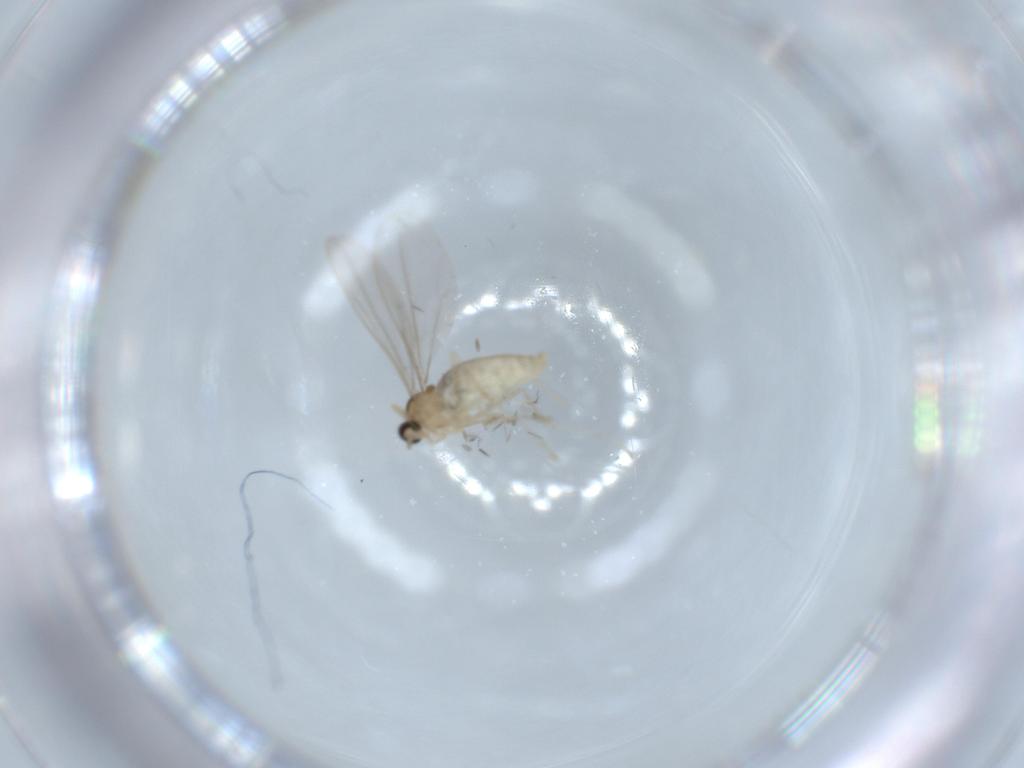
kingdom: Animalia
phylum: Arthropoda
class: Insecta
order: Diptera
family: Cecidomyiidae
